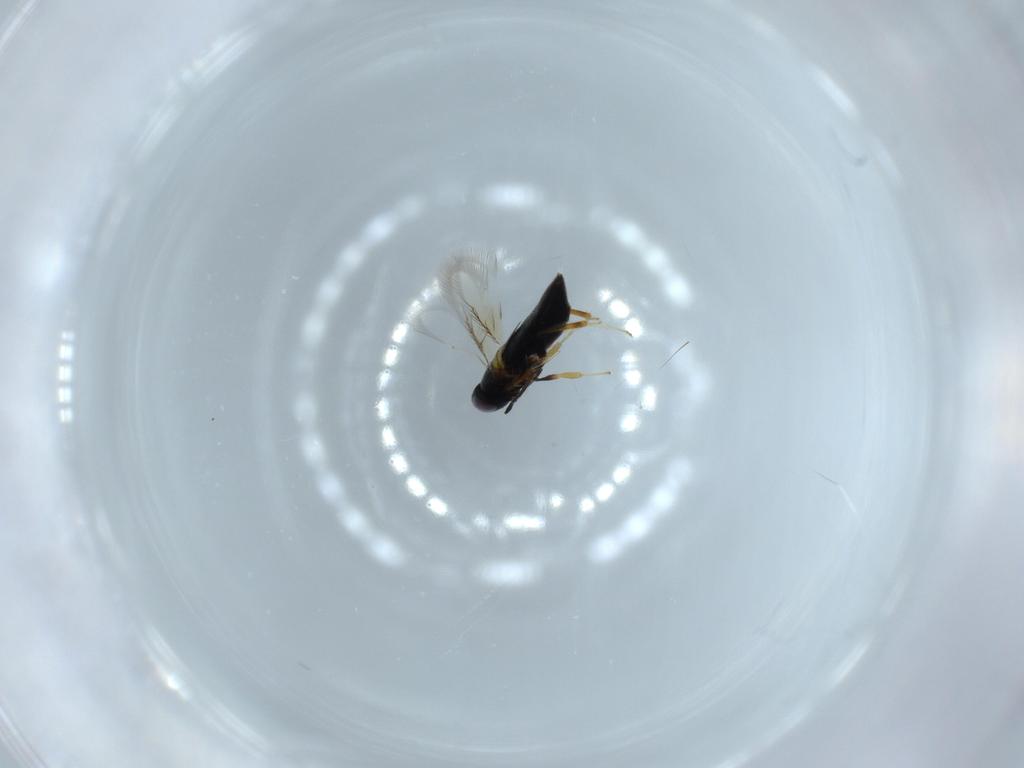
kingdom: Animalia
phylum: Arthropoda
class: Insecta
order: Hymenoptera
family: Signiphoridae
